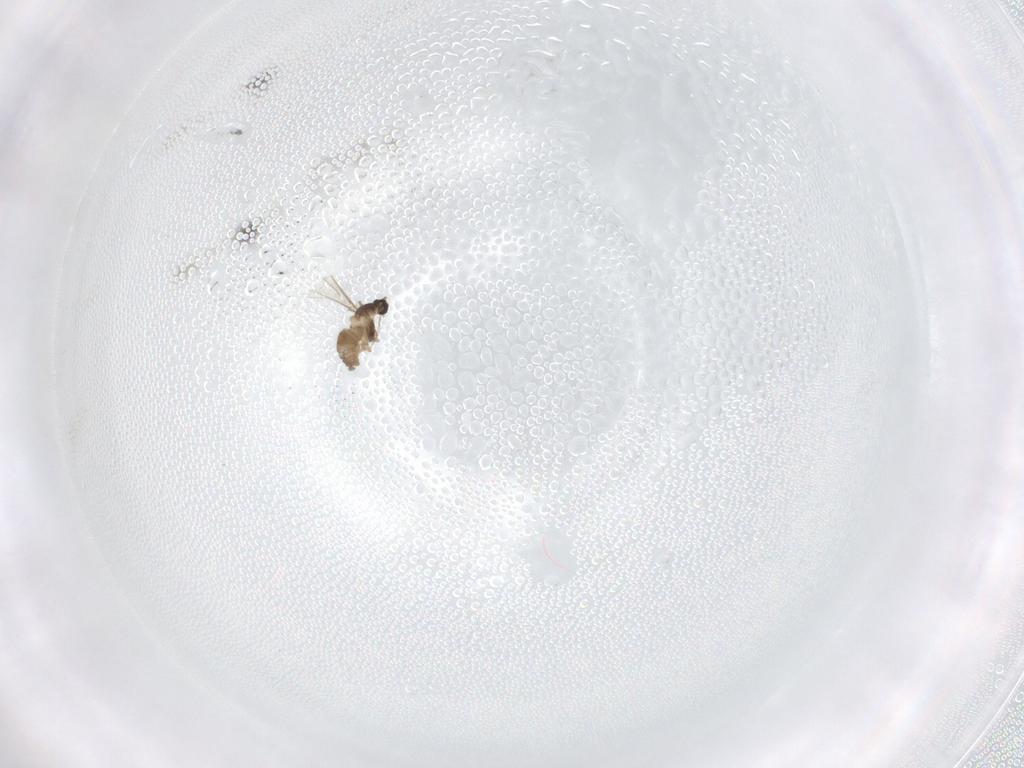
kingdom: Animalia
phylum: Arthropoda
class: Insecta
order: Diptera
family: Cecidomyiidae
